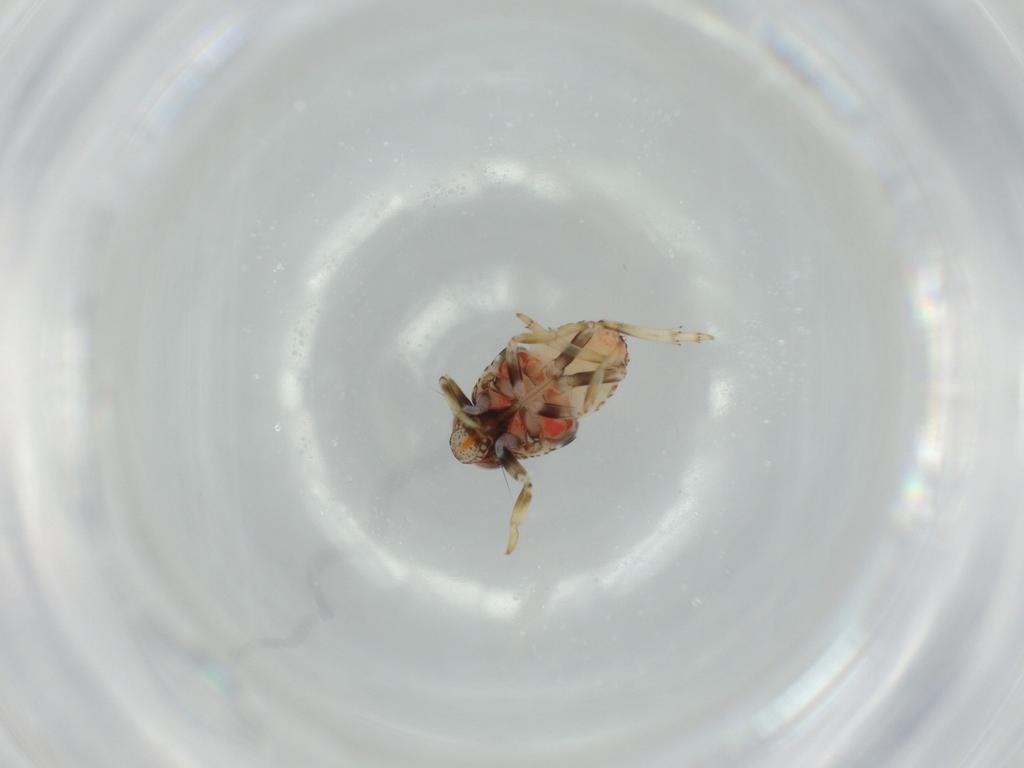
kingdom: Animalia
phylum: Arthropoda
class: Insecta
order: Hemiptera
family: Issidae
